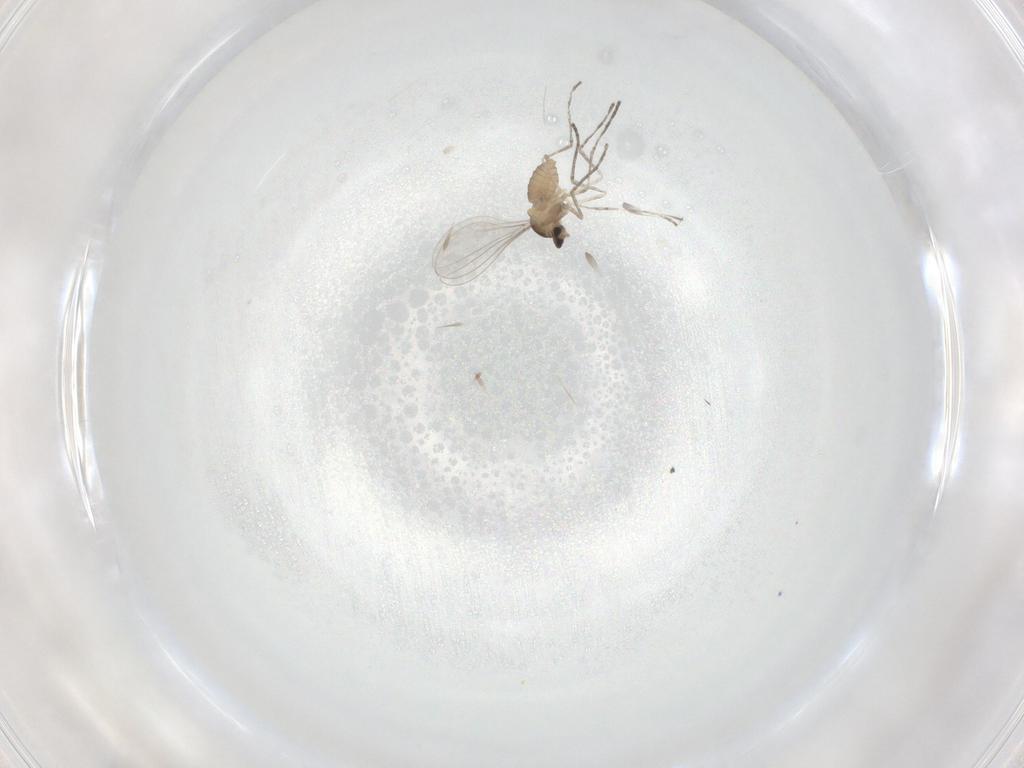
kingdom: Animalia
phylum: Arthropoda
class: Insecta
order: Diptera
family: Cecidomyiidae
